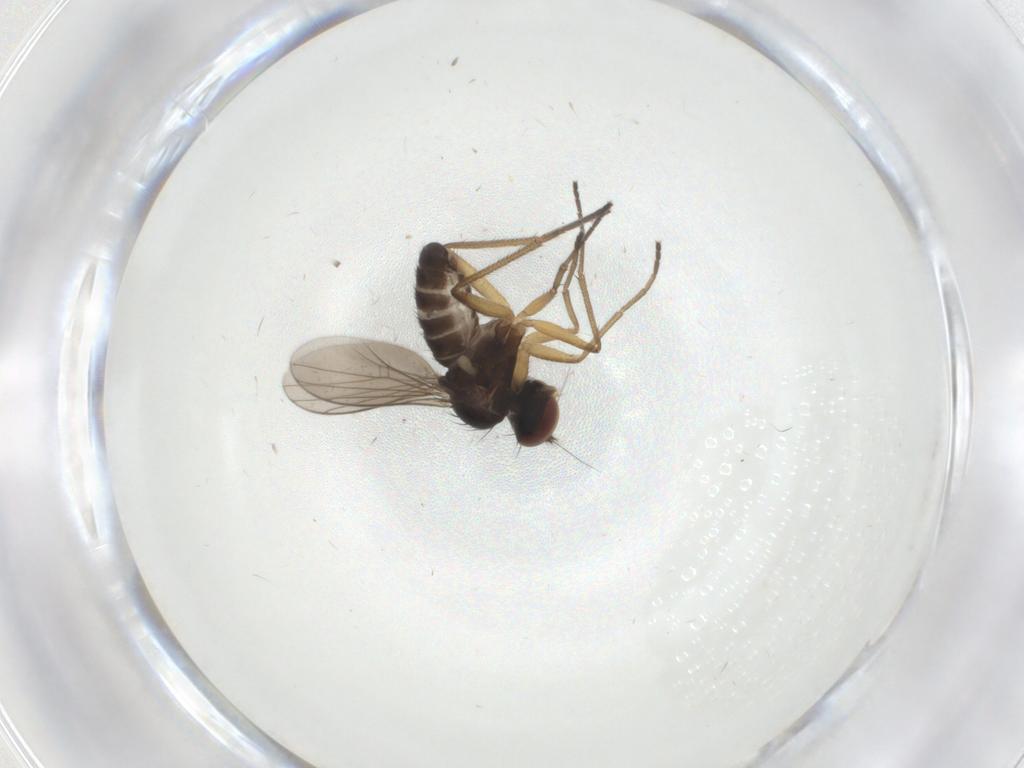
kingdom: Animalia
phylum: Arthropoda
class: Insecta
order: Diptera
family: Dolichopodidae
